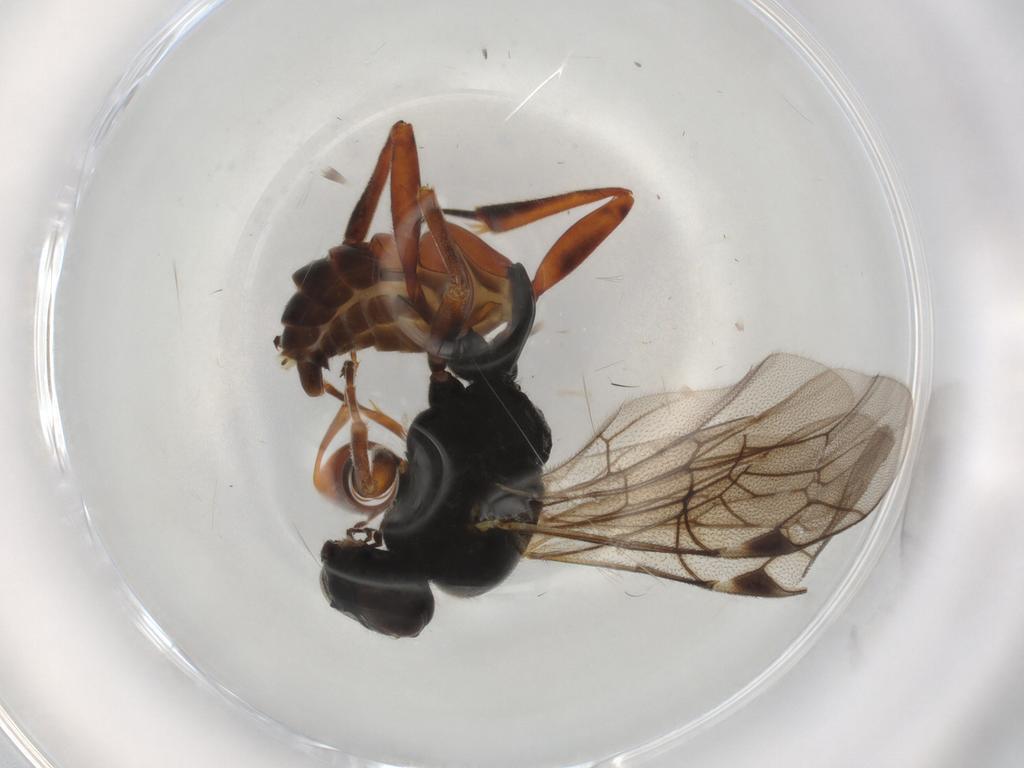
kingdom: Animalia
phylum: Arthropoda
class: Insecta
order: Hymenoptera
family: Ichneumonidae
